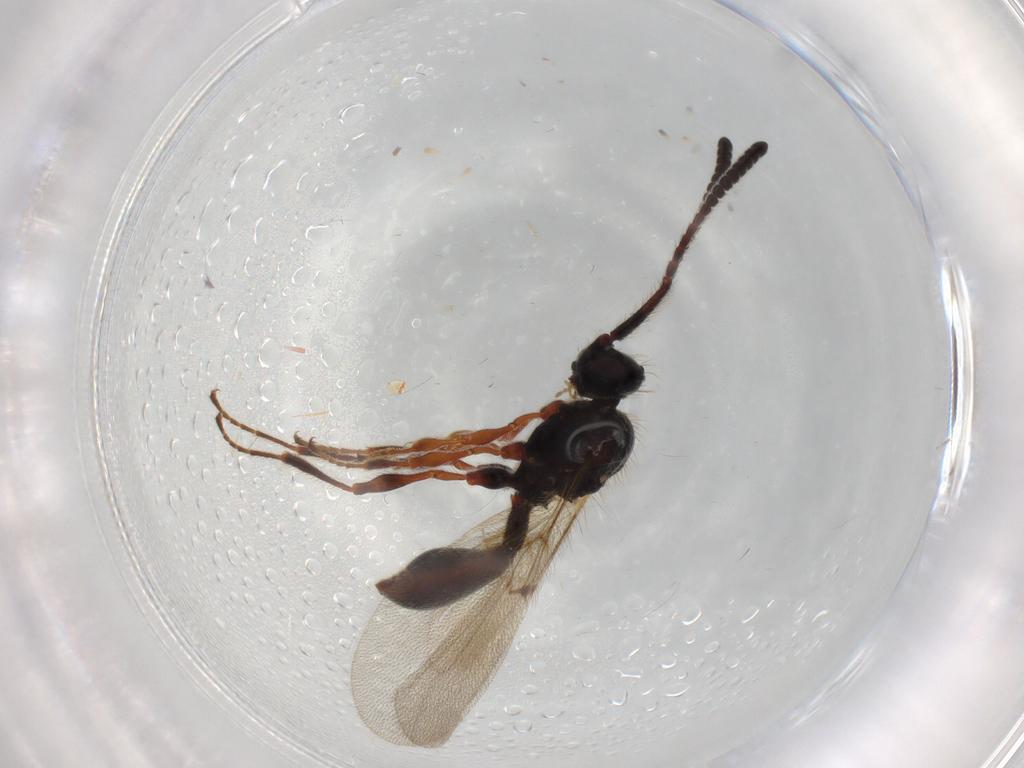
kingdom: Animalia
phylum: Arthropoda
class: Insecta
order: Hymenoptera
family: Diapriidae
